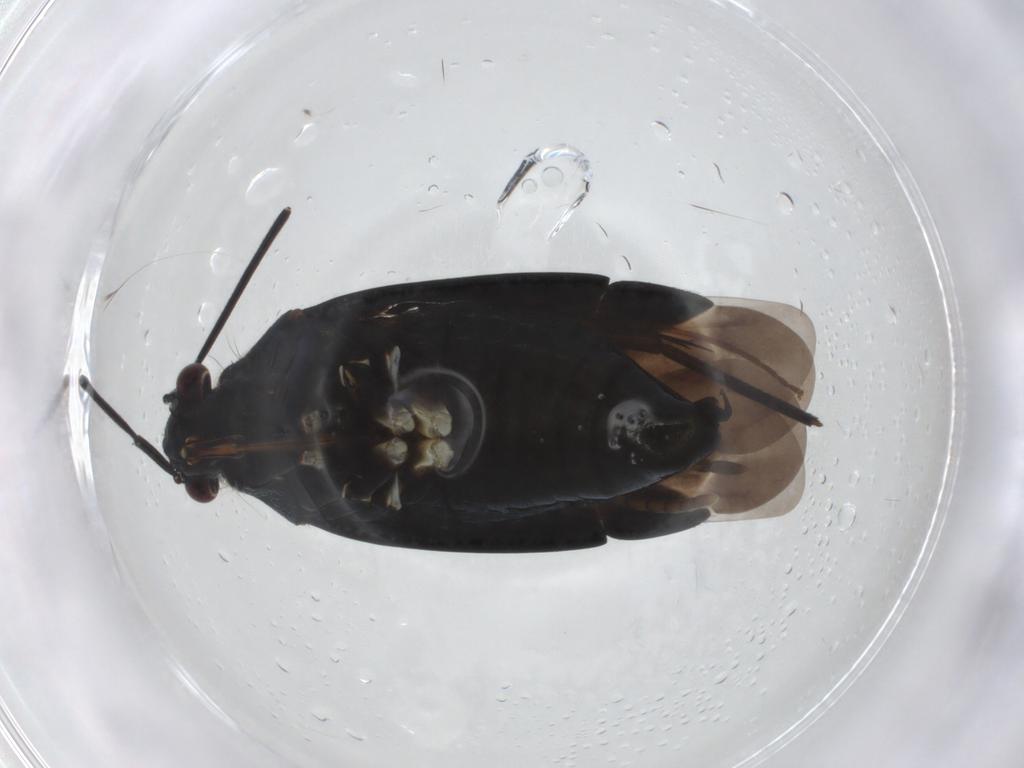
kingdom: Animalia
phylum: Arthropoda
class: Insecta
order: Hemiptera
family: Miridae
